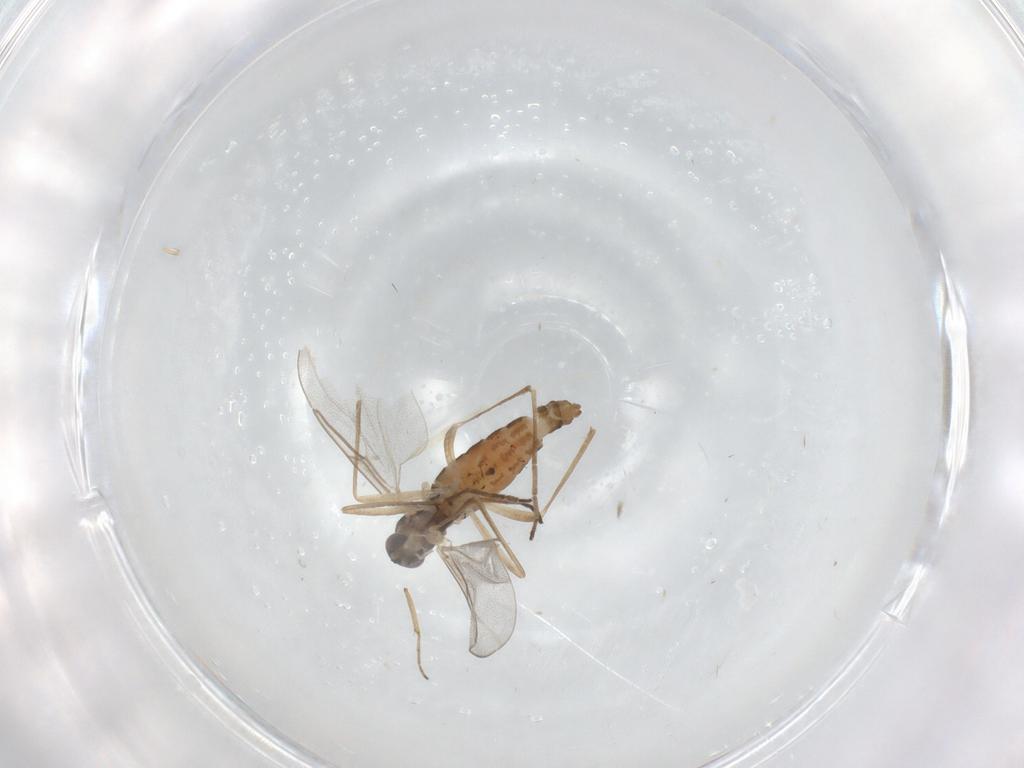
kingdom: Animalia
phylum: Arthropoda
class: Insecta
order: Diptera
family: Cecidomyiidae
